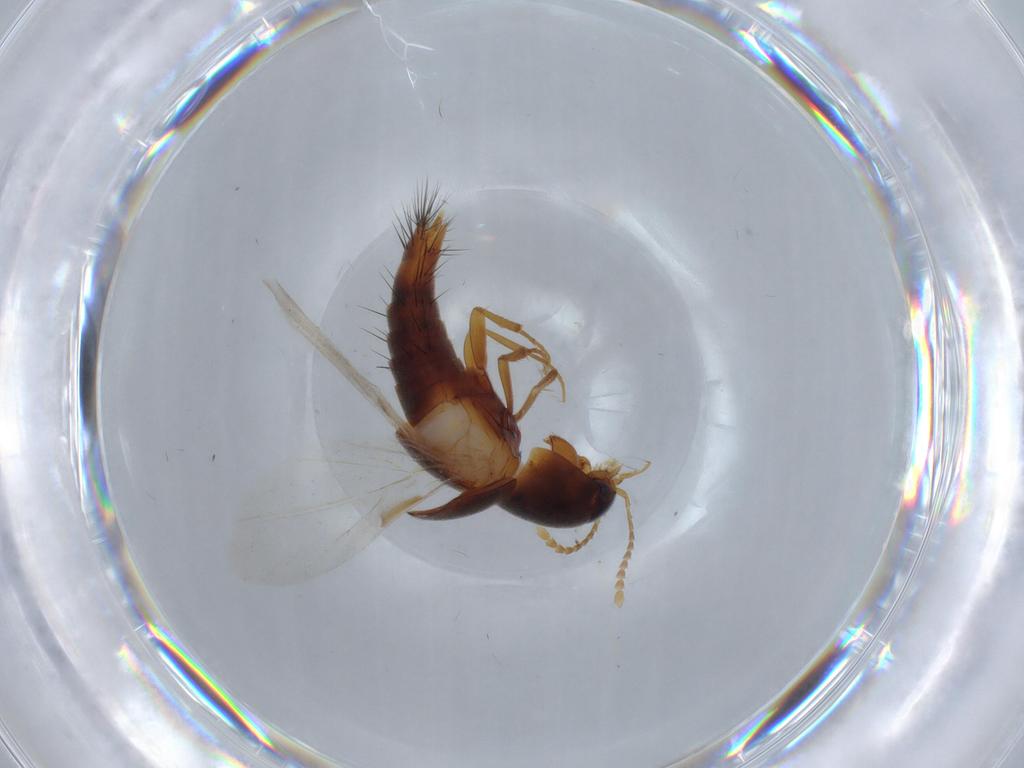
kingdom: Animalia
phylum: Arthropoda
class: Insecta
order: Coleoptera
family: Staphylinidae
